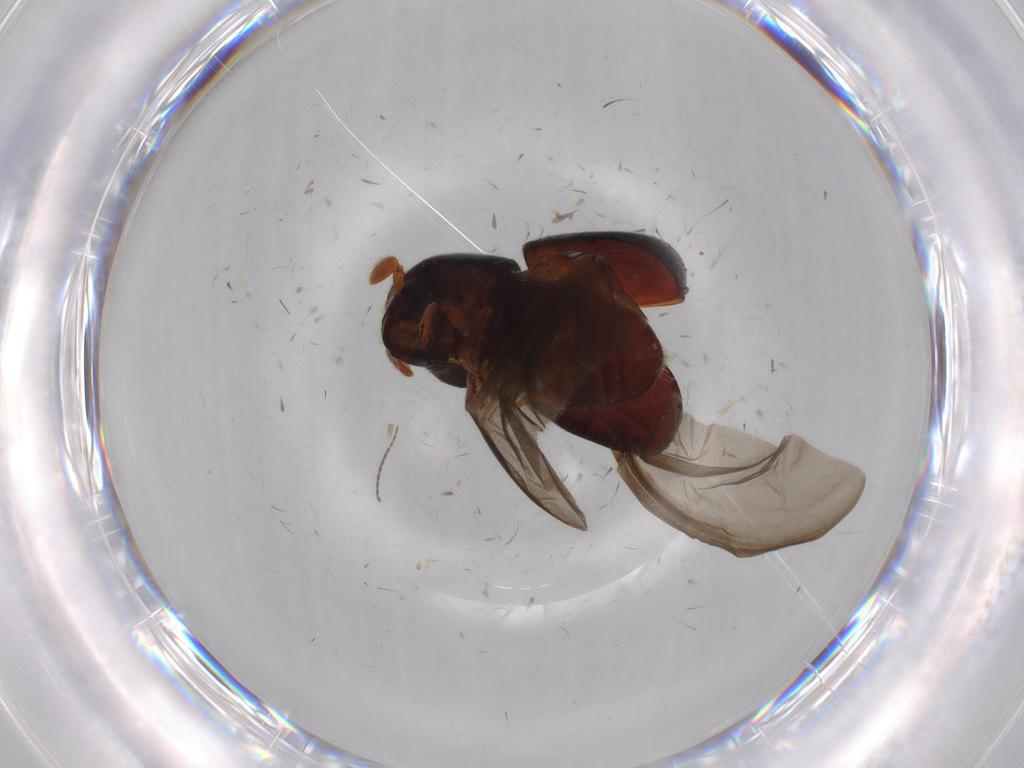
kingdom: Animalia
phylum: Arthropoda
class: Insecta
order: Coleoptera
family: Curculionidae
